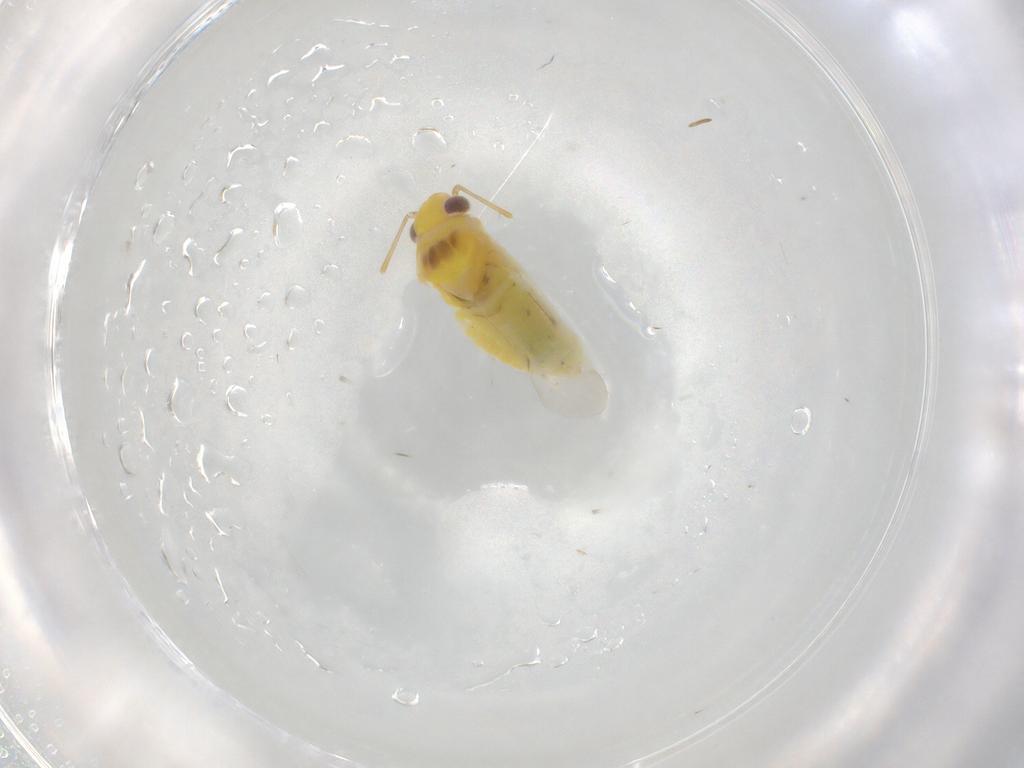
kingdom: Animalia
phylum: Arthropoda
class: Insecta
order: Hemiptera
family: Miridae
